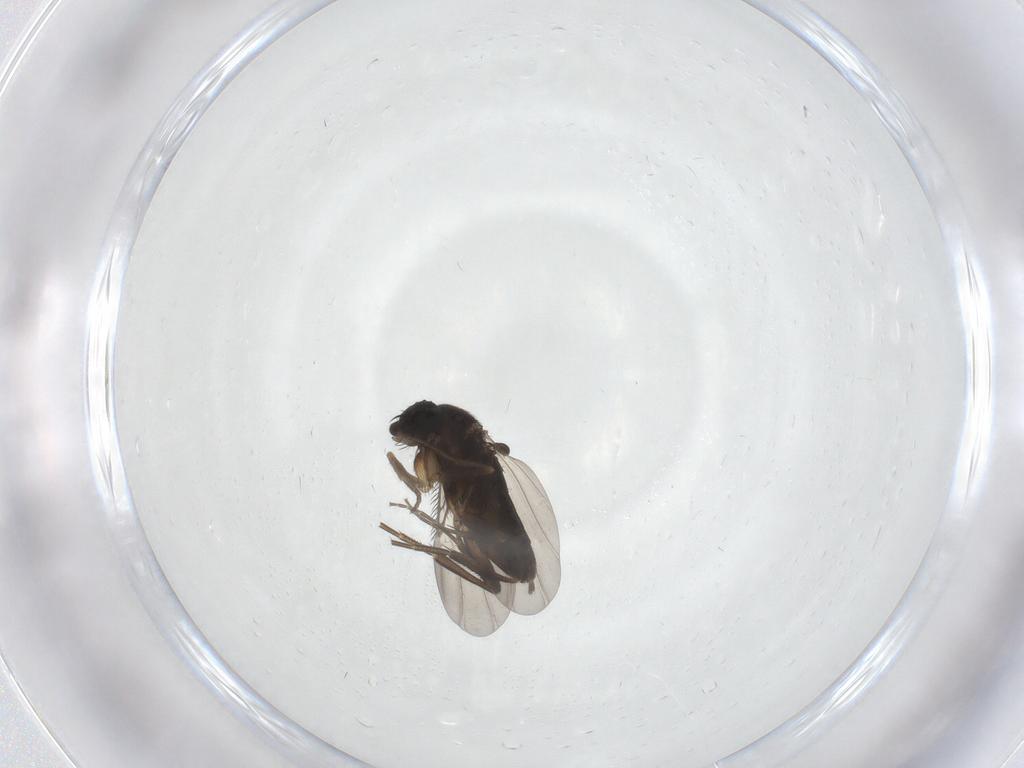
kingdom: Animalia
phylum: Arthropoda
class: Insecta
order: Diptera
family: Phoridae
